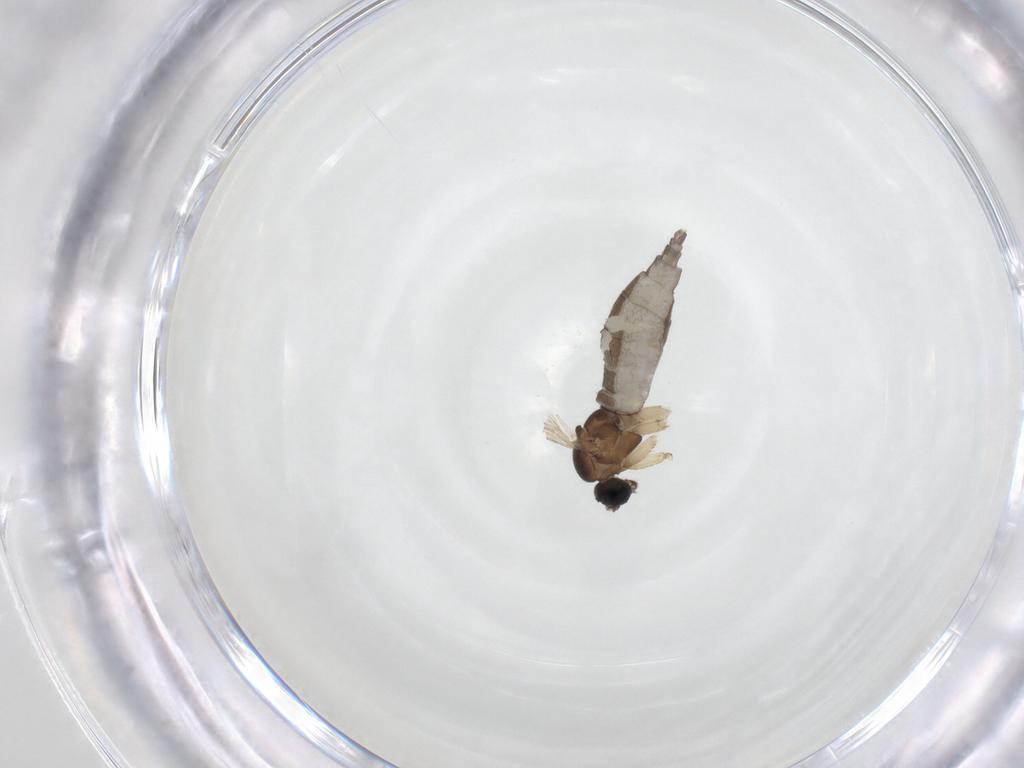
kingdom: Animalia
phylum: Arthropoda
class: Insecta
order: Diptera
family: Sciaridae
